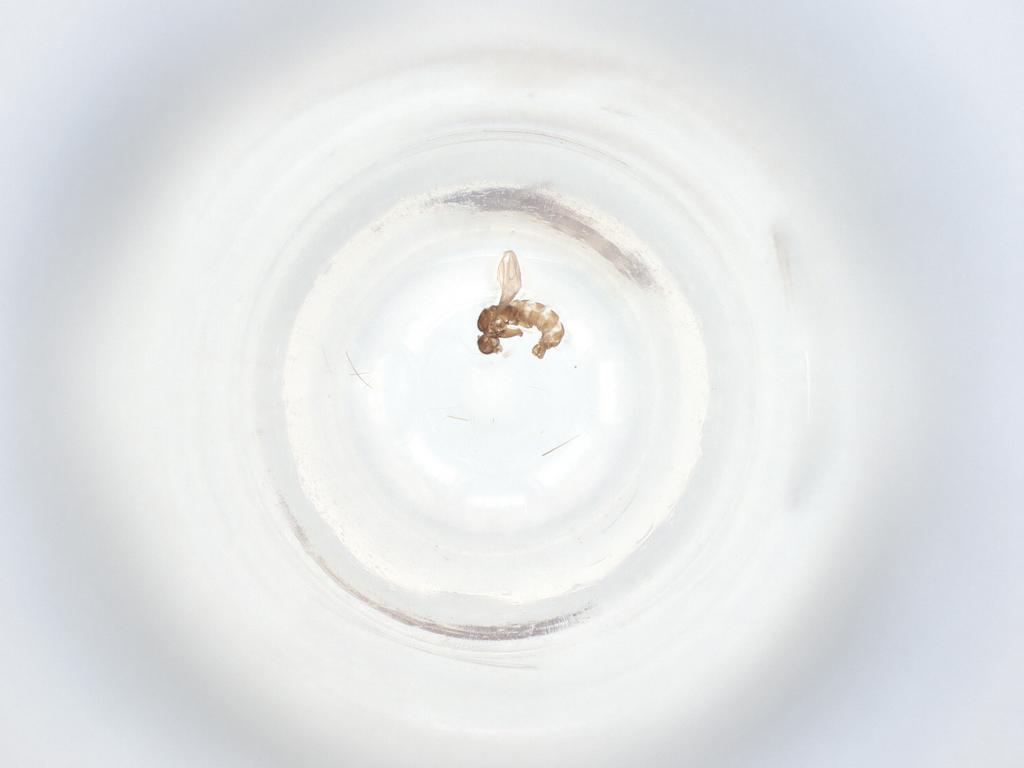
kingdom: Animalia
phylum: Arthropoda
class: Insecta
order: Diptera
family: Sciaridae
